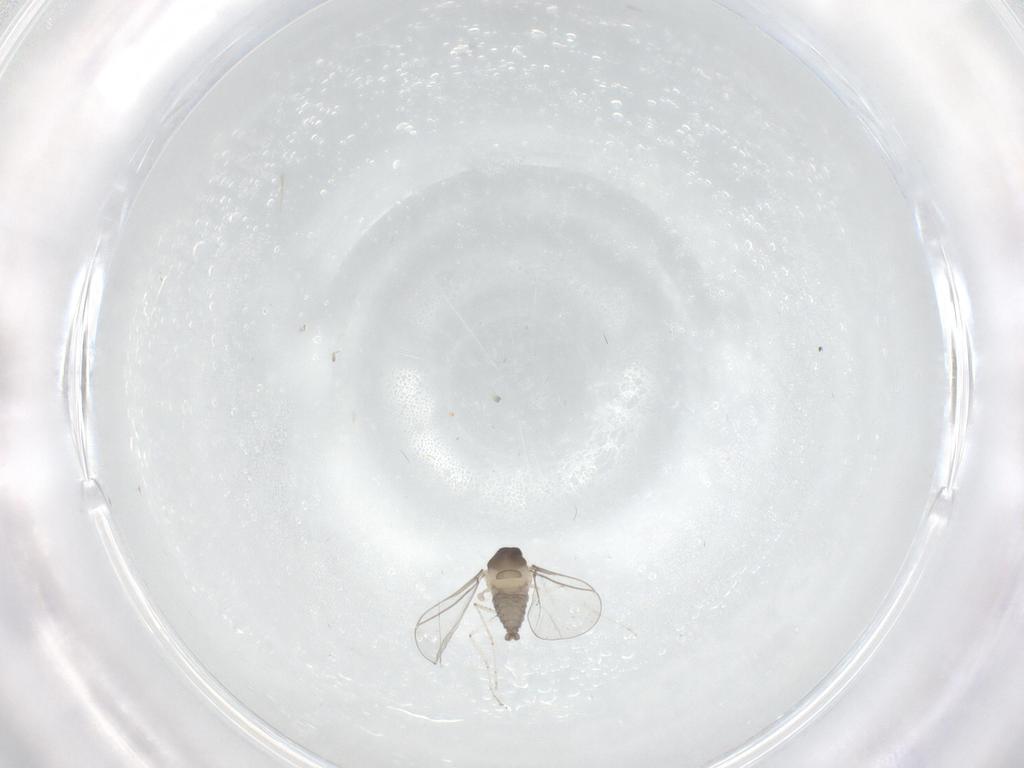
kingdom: Animalia
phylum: Arthropoda
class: Insecta
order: Diptera
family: Cecidomyiidae
